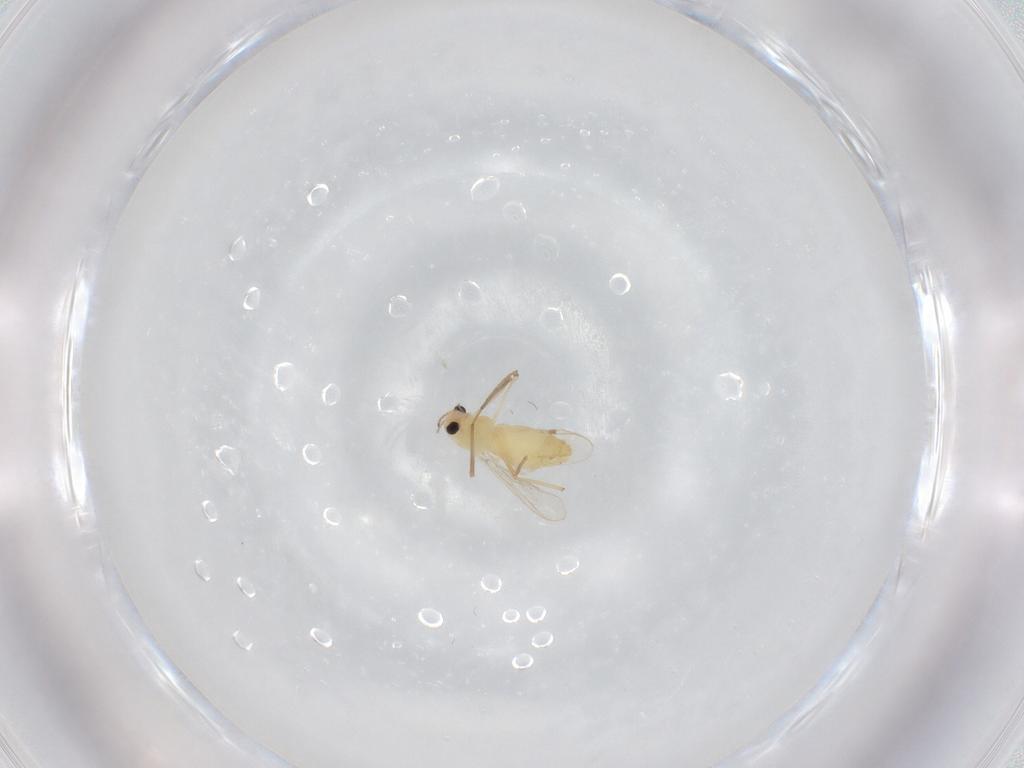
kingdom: Animalia
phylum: Arthropoda
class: Insecta
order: Diptera
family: Chironomidae
